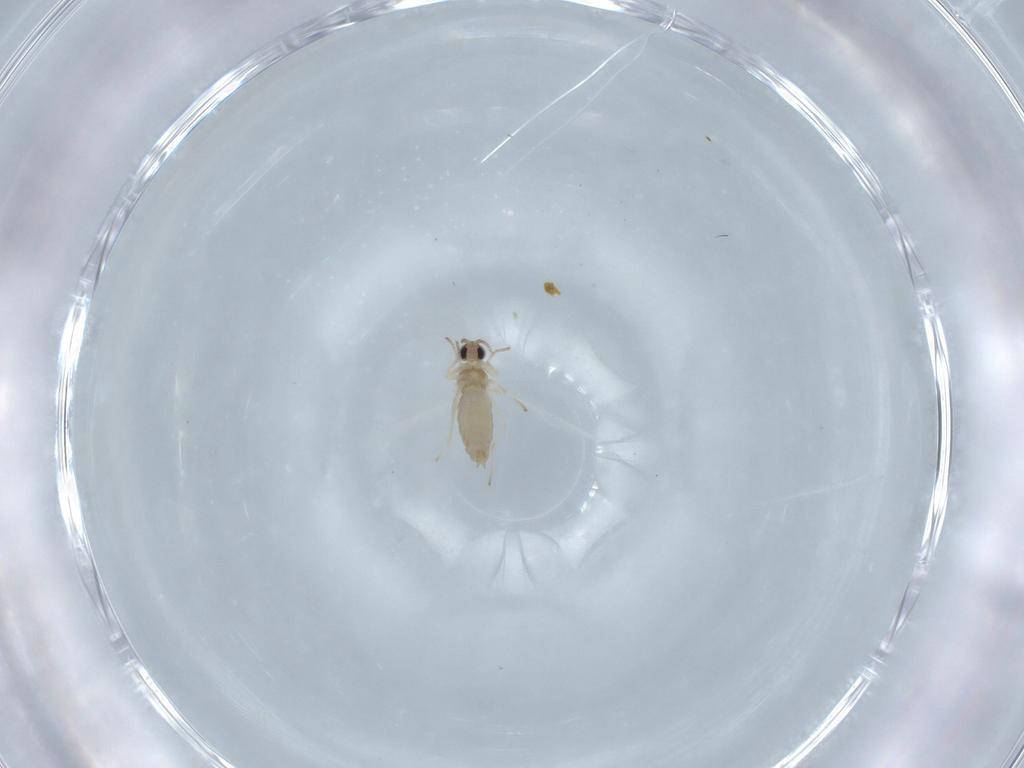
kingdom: Animalia
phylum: Arthropoda
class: Insecta
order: Diptera
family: Cecidomyiidae
